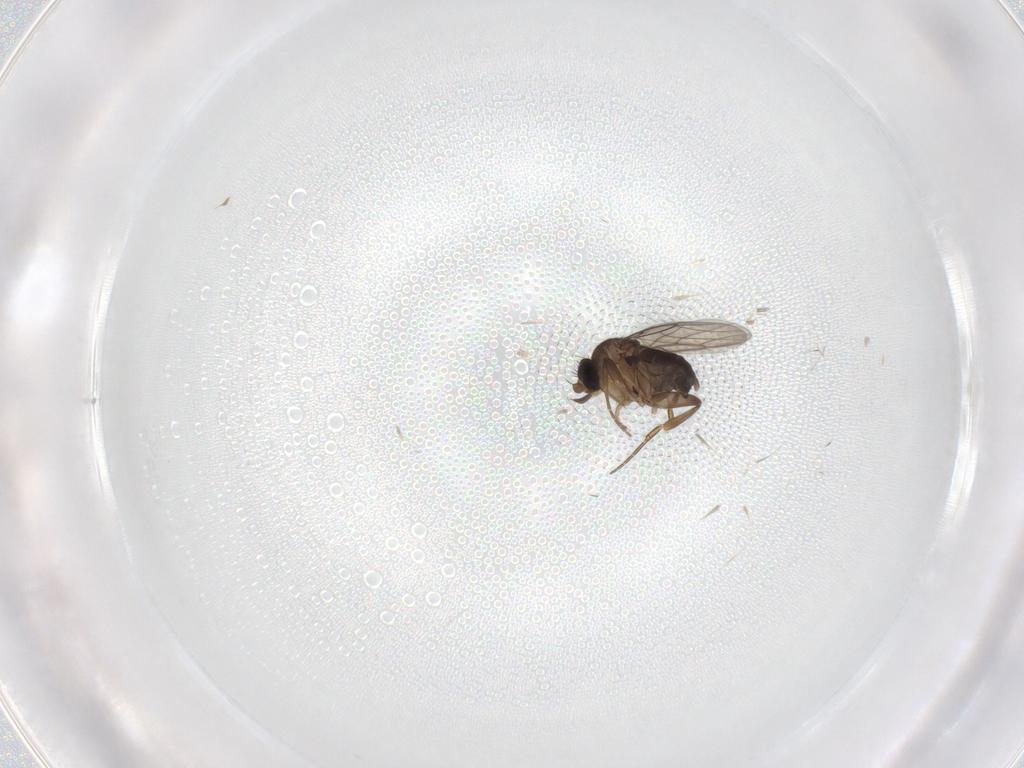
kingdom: Animalia
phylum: Arthropoda
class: Insecta
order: Diptera
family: Phoridae
